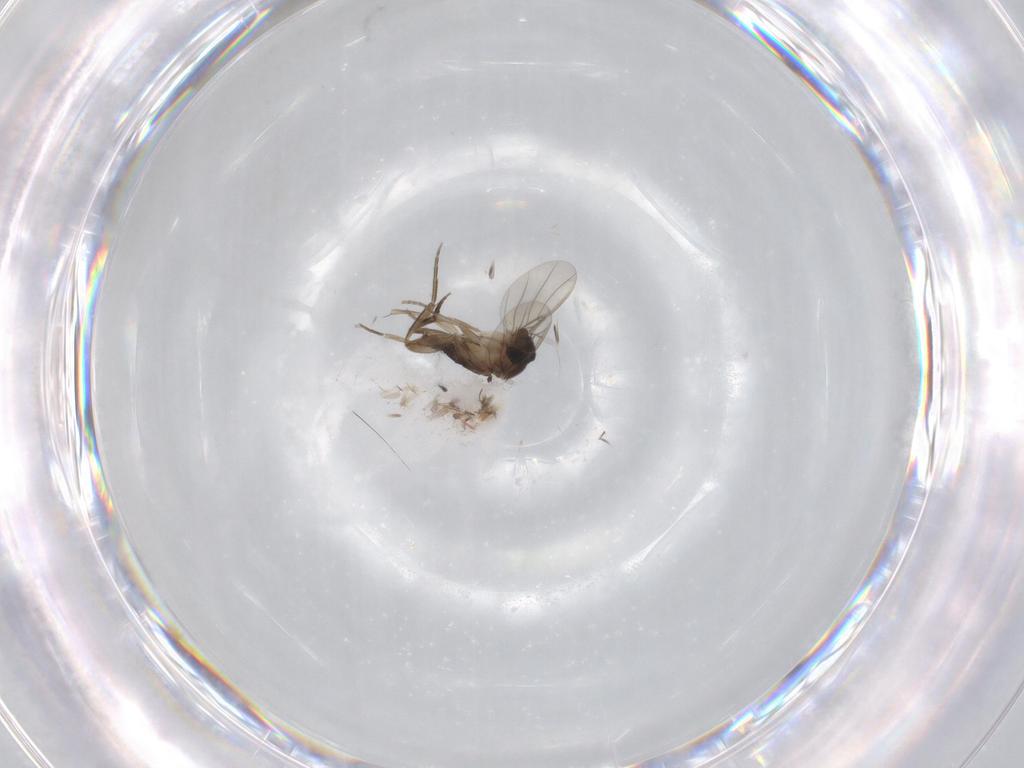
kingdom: Animalia
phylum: Arthropoda
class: Insecta
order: Diptera
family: Phoridae
